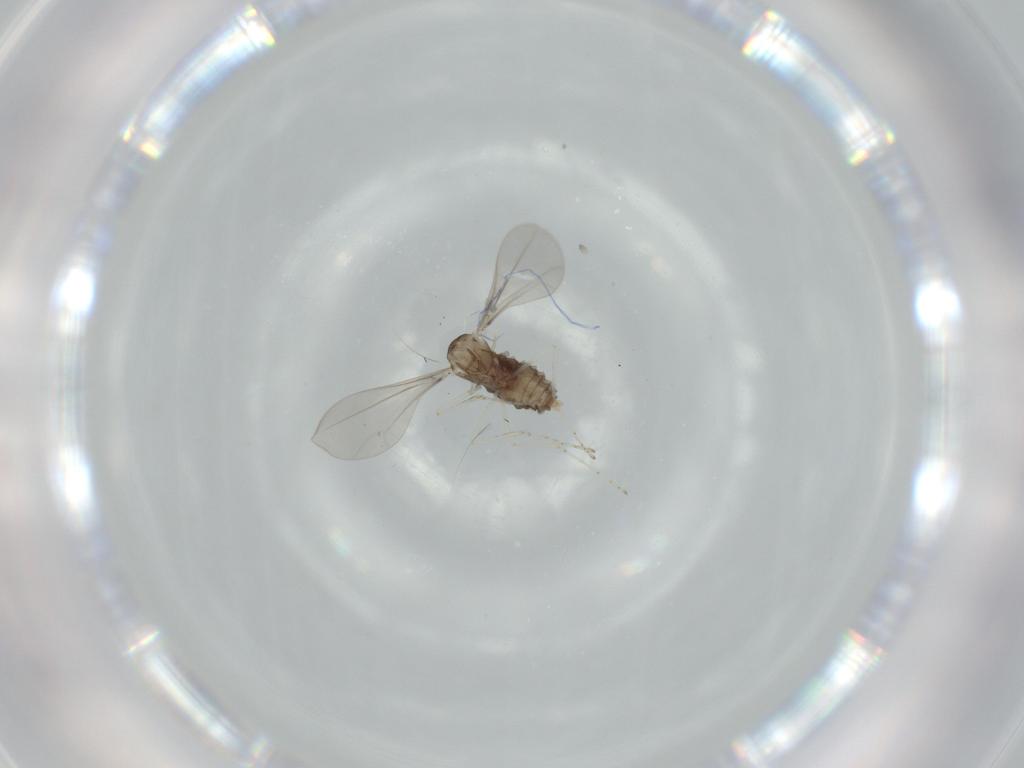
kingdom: Animalia
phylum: Arthropoda
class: Insecta
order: Diptera
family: Drosophilidae
